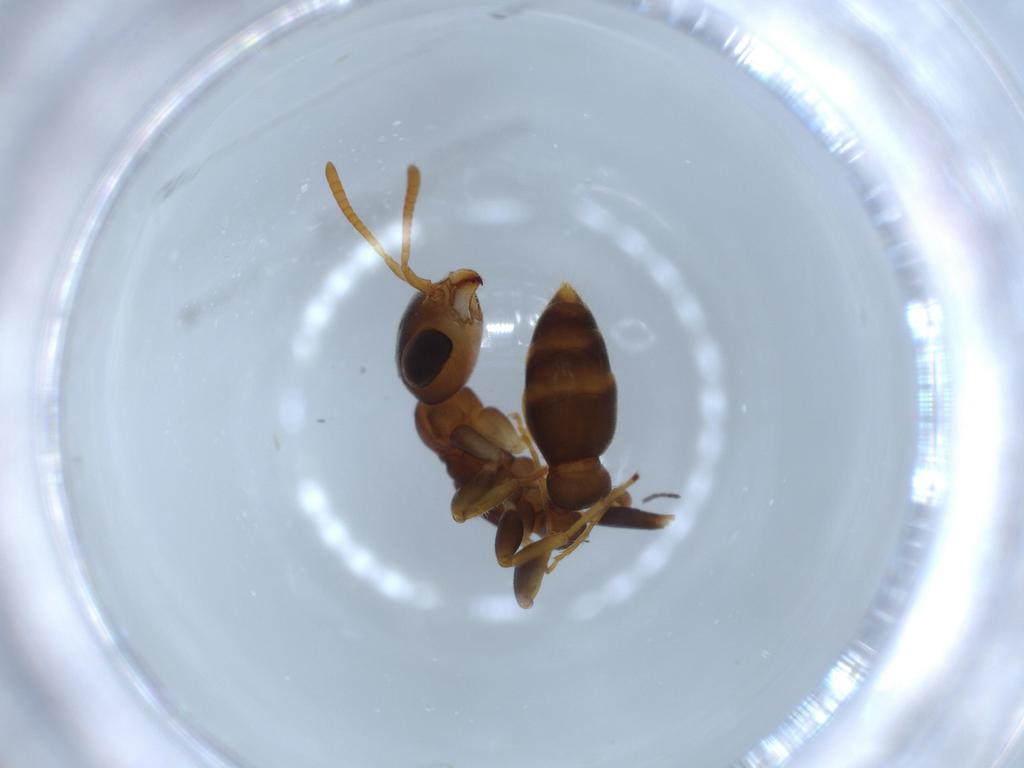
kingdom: Animalia
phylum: Arthropoda
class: Insecta
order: Hymenoptera
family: Formicidae
